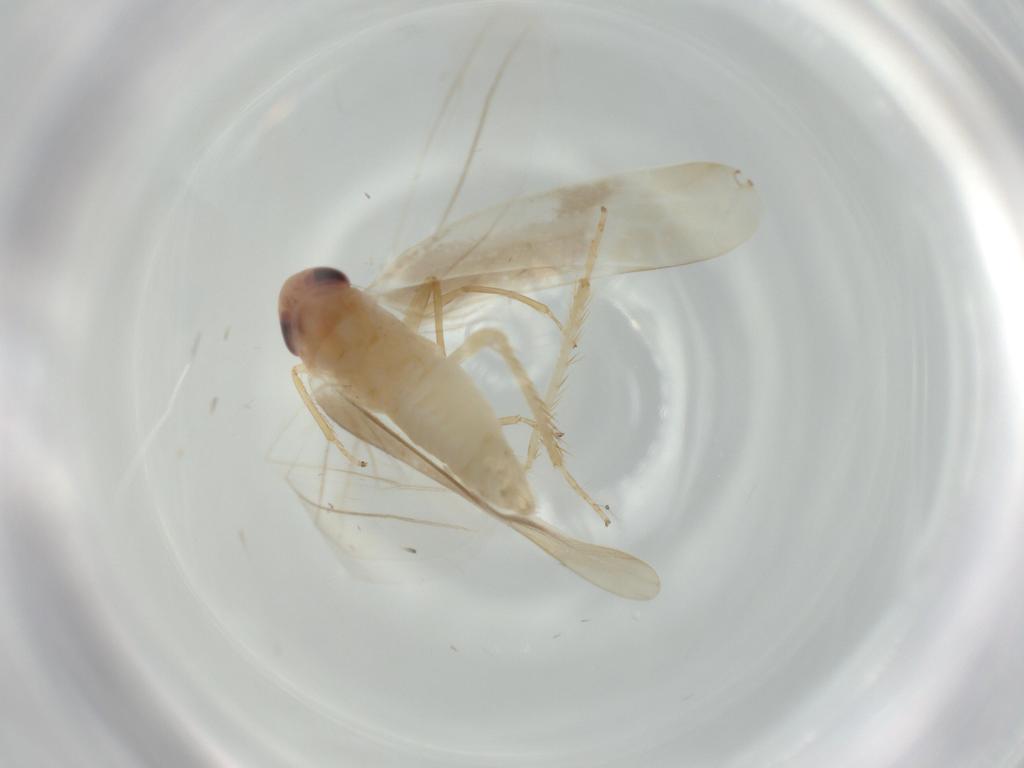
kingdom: Animalia
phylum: Arthropoda
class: Insecta
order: Hemiptera
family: Cicadellidae
